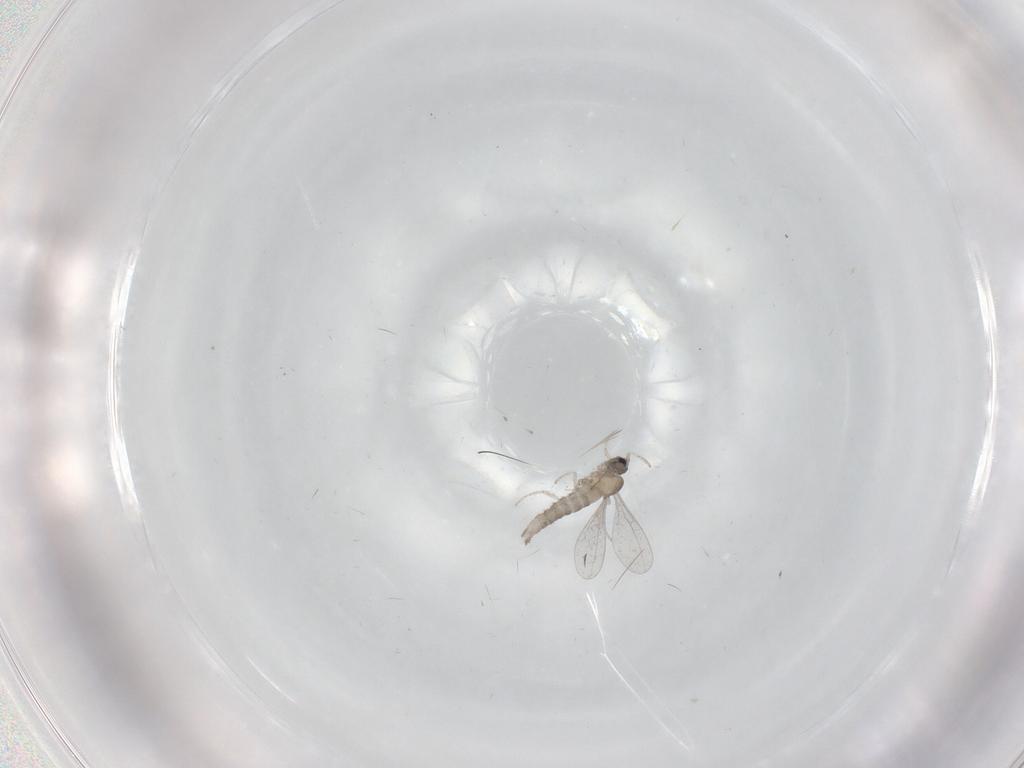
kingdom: Animalia
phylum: Arthropoda
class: Insecta
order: Diptera
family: Cecidomyiidae
